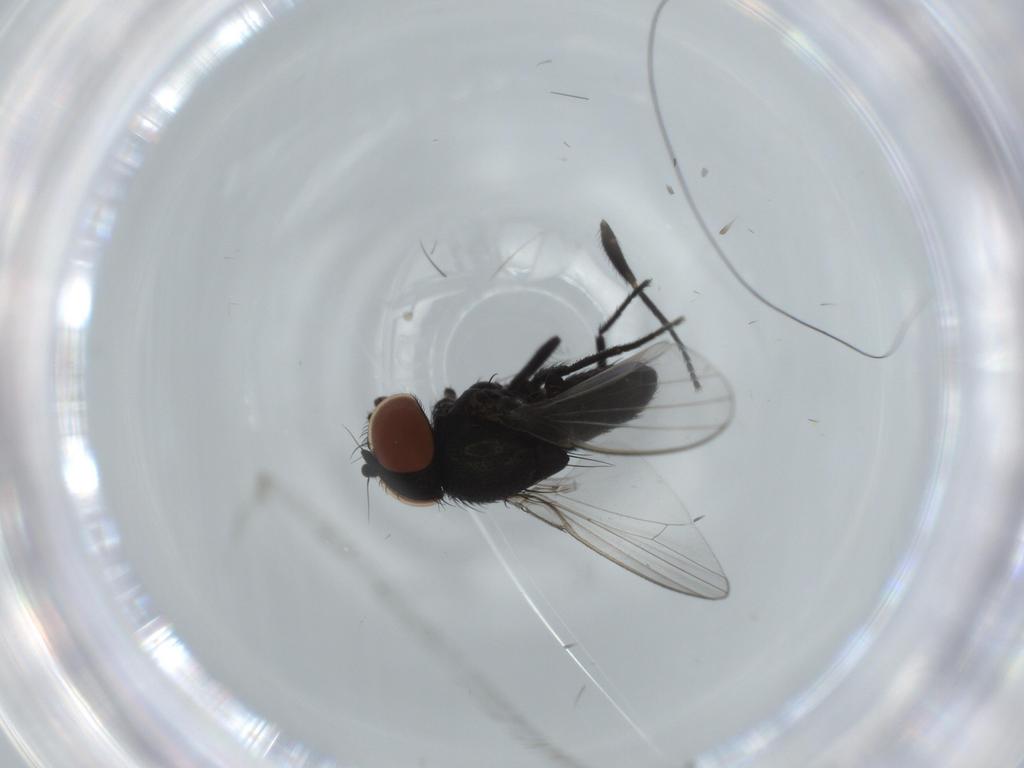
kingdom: Animalia
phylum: Arthropoda
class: Insecta
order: Diptera
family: Milichiidae
